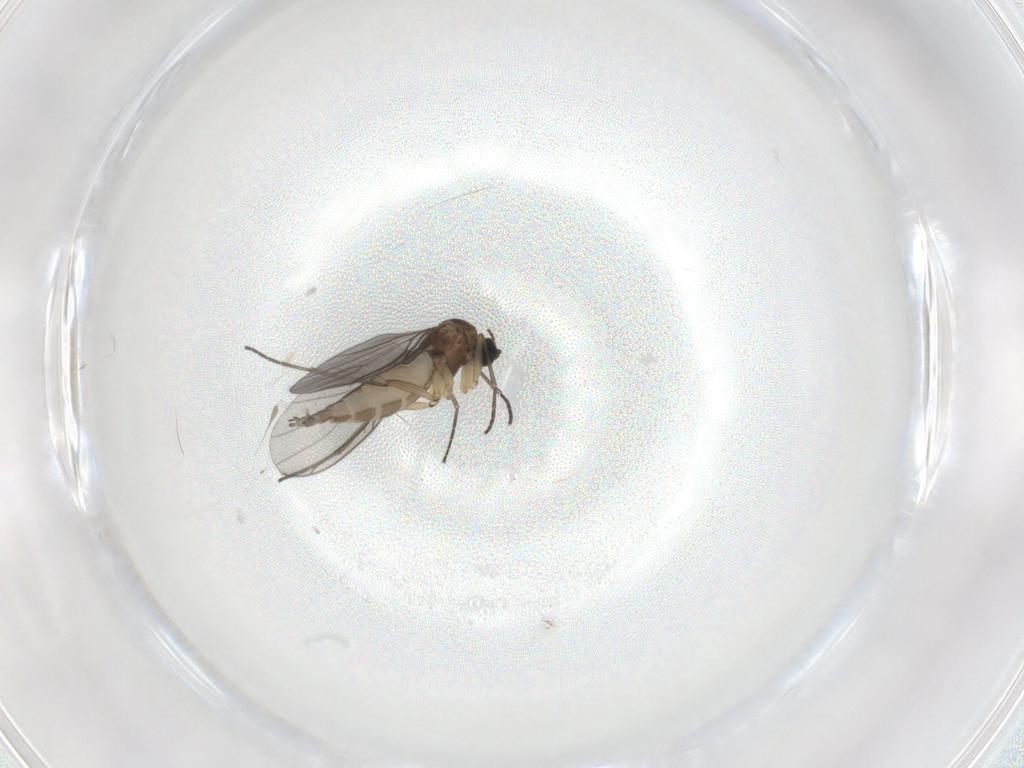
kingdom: Animalia
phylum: Arthropoda
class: Insecta
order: Diptera
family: Sciaridae
